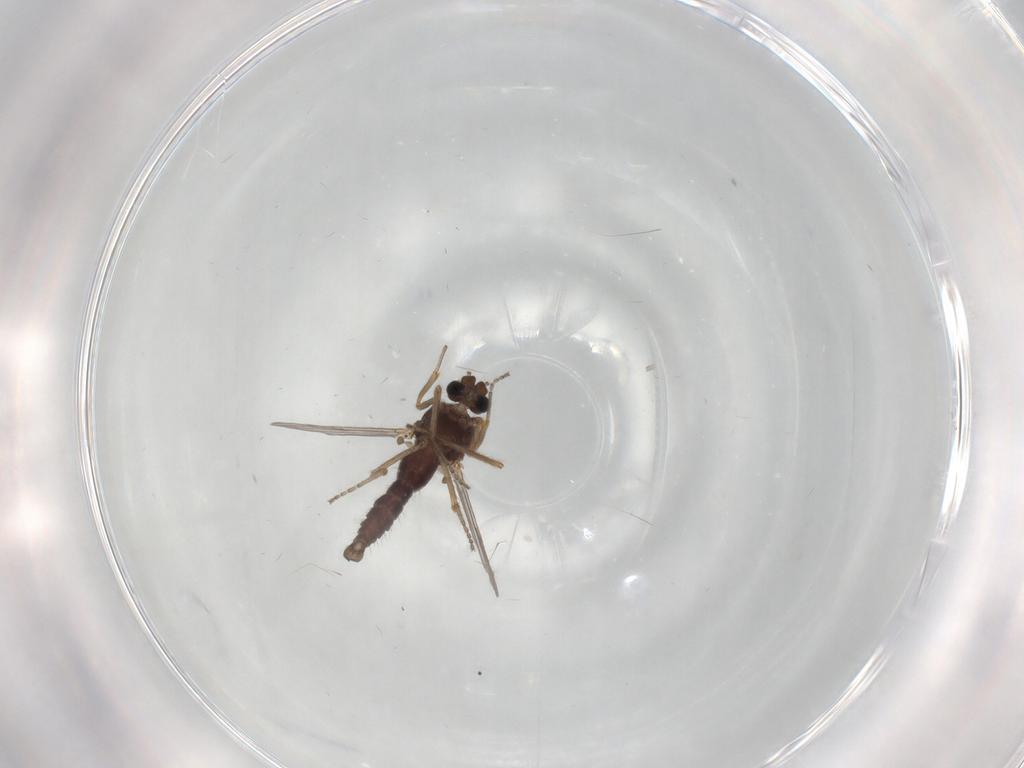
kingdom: Animalia
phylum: Arthropoda
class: Insecta
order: Diptera
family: Ceratopogonidae
